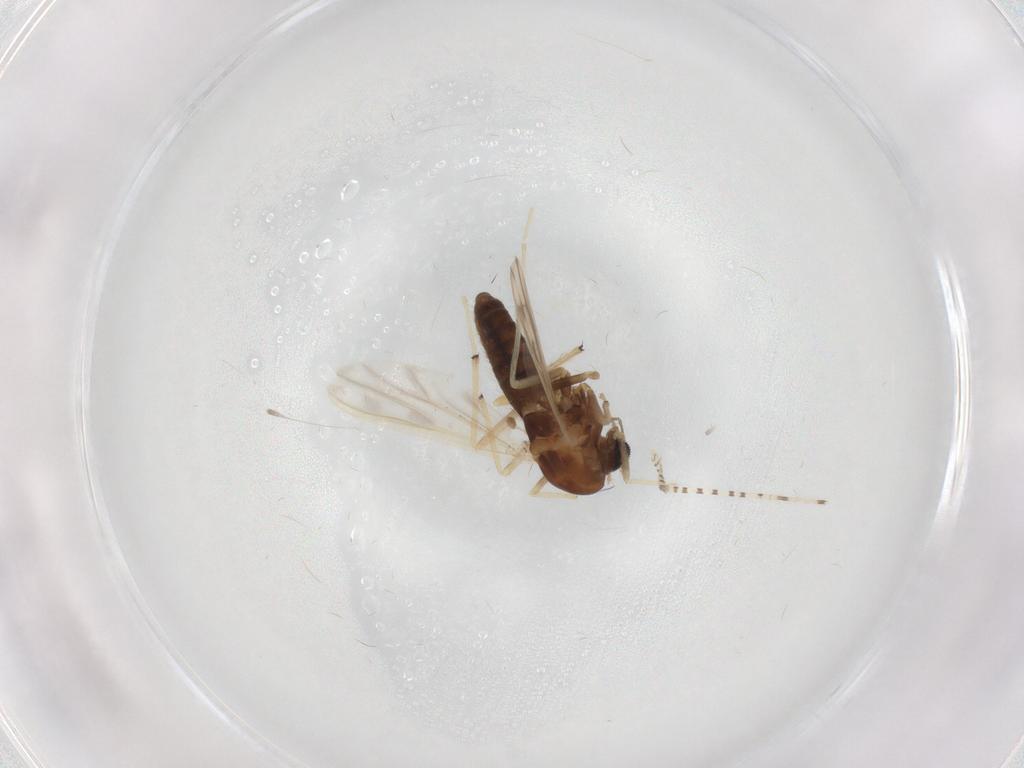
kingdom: Animalia
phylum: Arthropoda
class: Insecta
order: Diptera
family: Chironomidae
